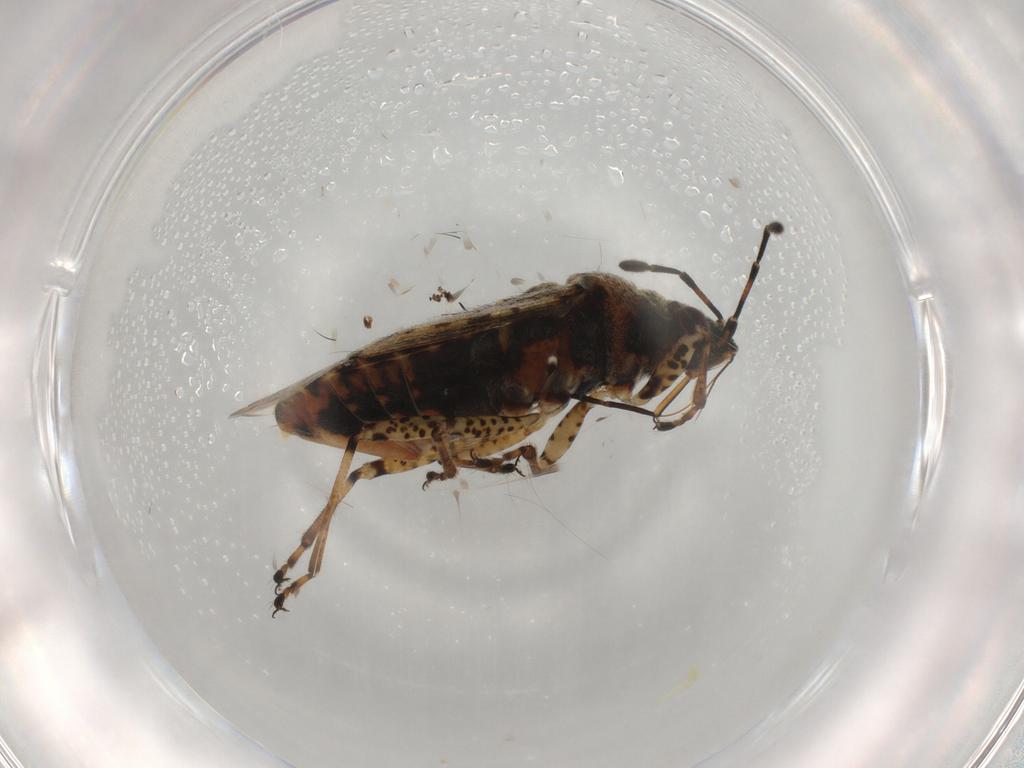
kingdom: Animalia
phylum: Arthropoda
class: Insecta
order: Hemiptera
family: Lygaeidae
